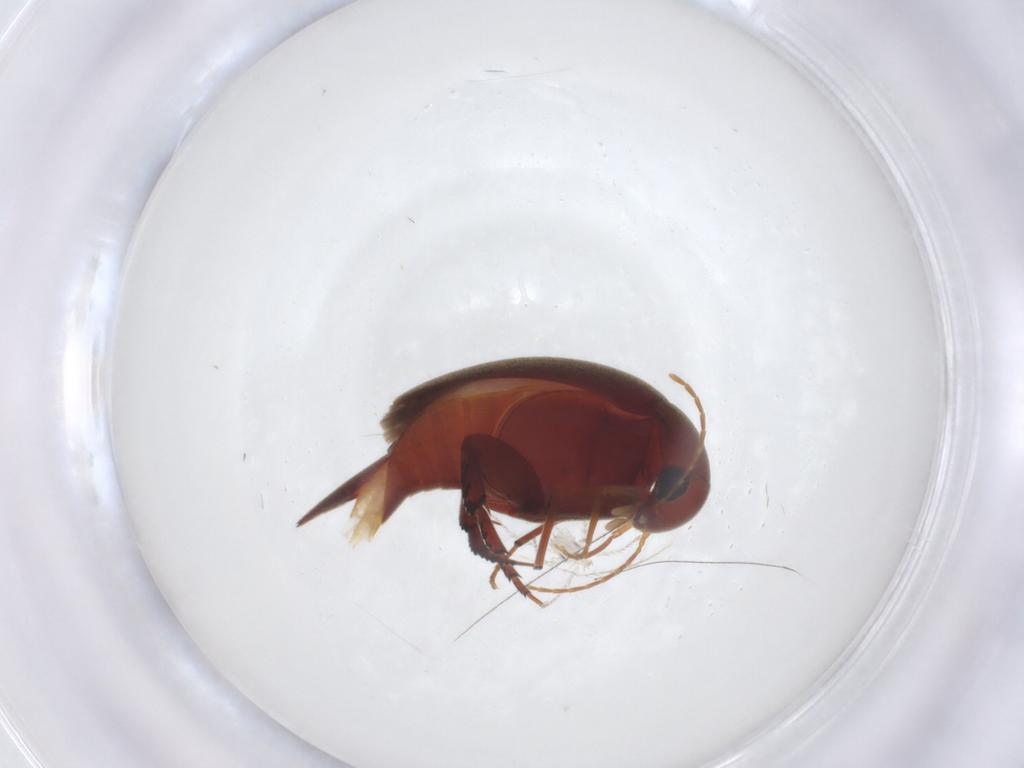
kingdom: Animalia
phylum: Arthropoda
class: Insecta
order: Coleoptera
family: Mordellidae
